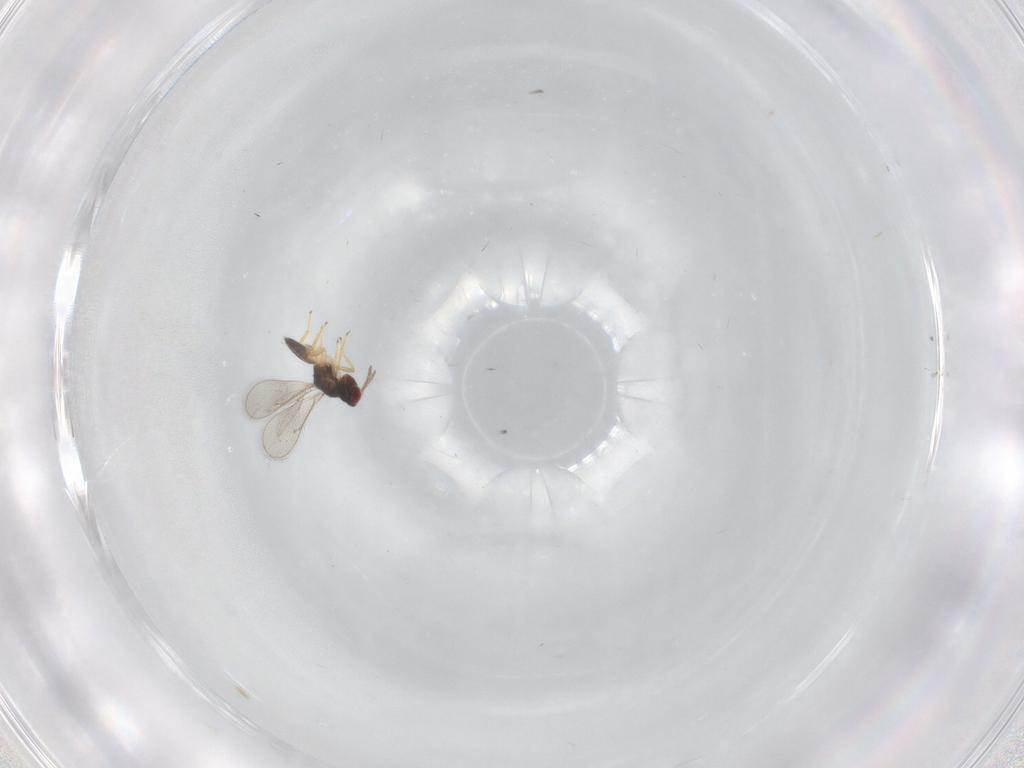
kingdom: Animalia
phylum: Arthropoda
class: Insecta
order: Hymenoptera
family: Eulophidae
